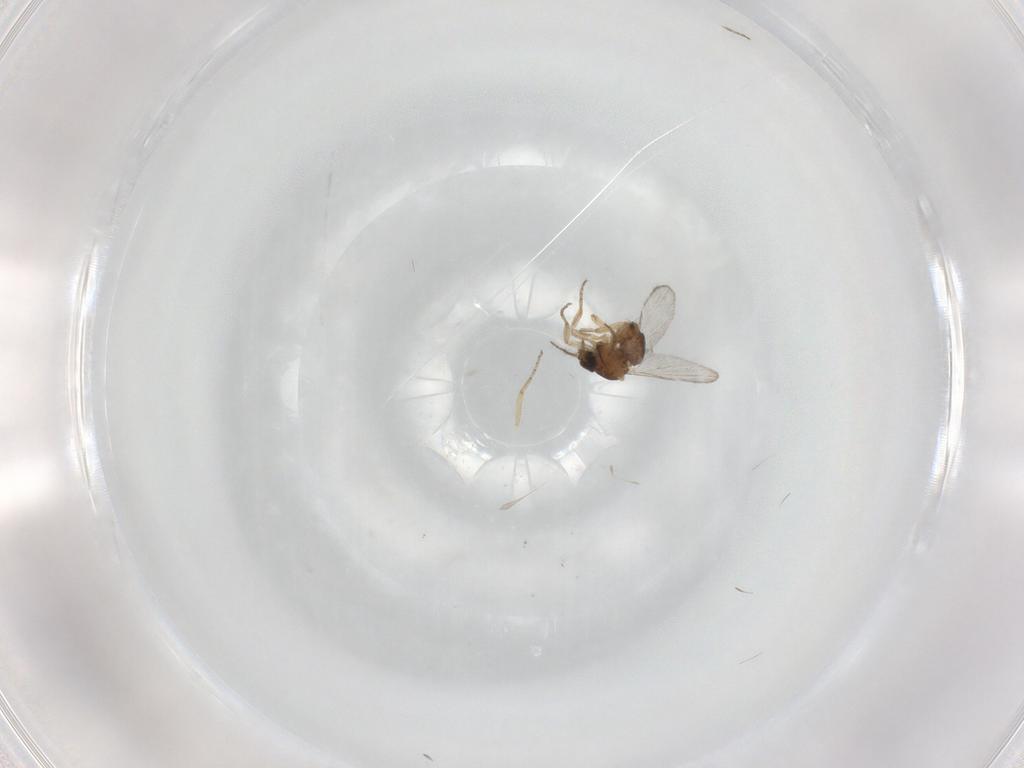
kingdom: Animalia
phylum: Arthropoda
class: Insecta
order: Diptera
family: Ceratopogonidae
